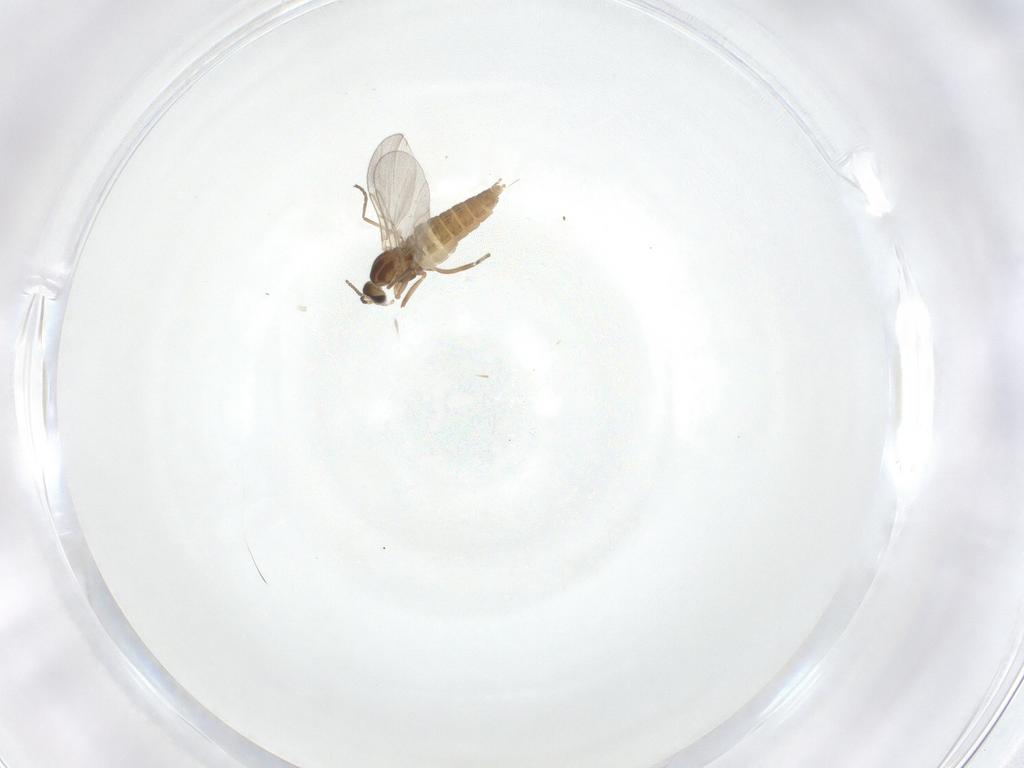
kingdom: Animalia
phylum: Arthropoda
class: Insecta
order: Diptera
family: Cecidomyiidae
